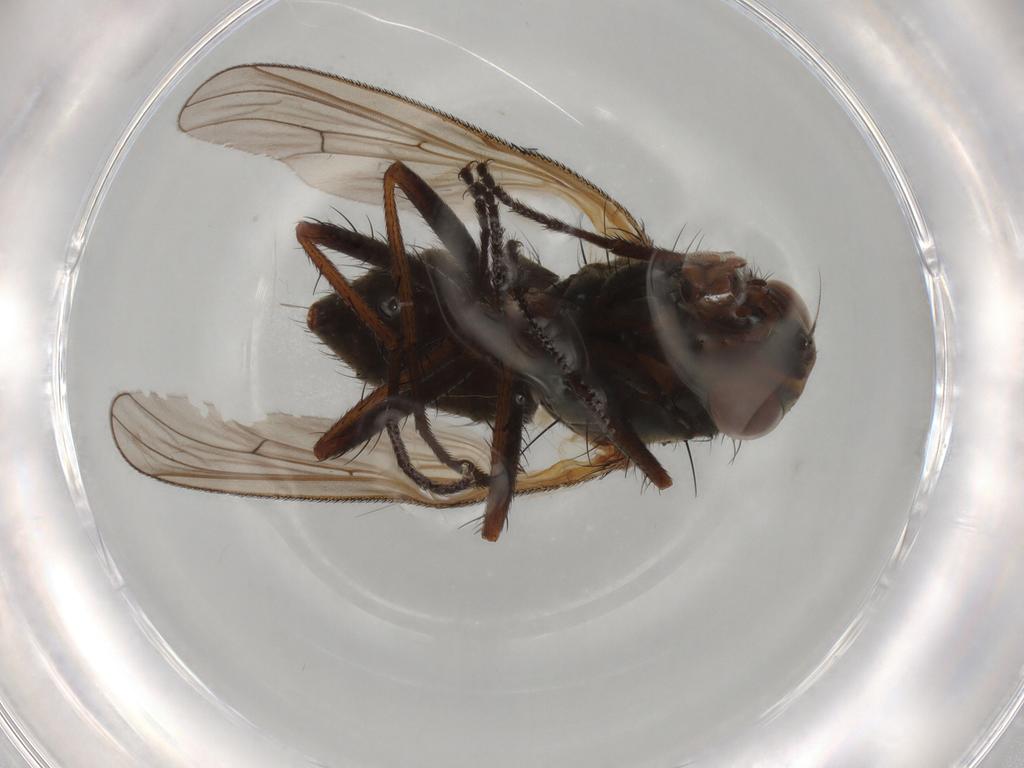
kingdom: Animalia
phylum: Arthropoda
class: Insecta
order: Diptera
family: Anthomyiidae
